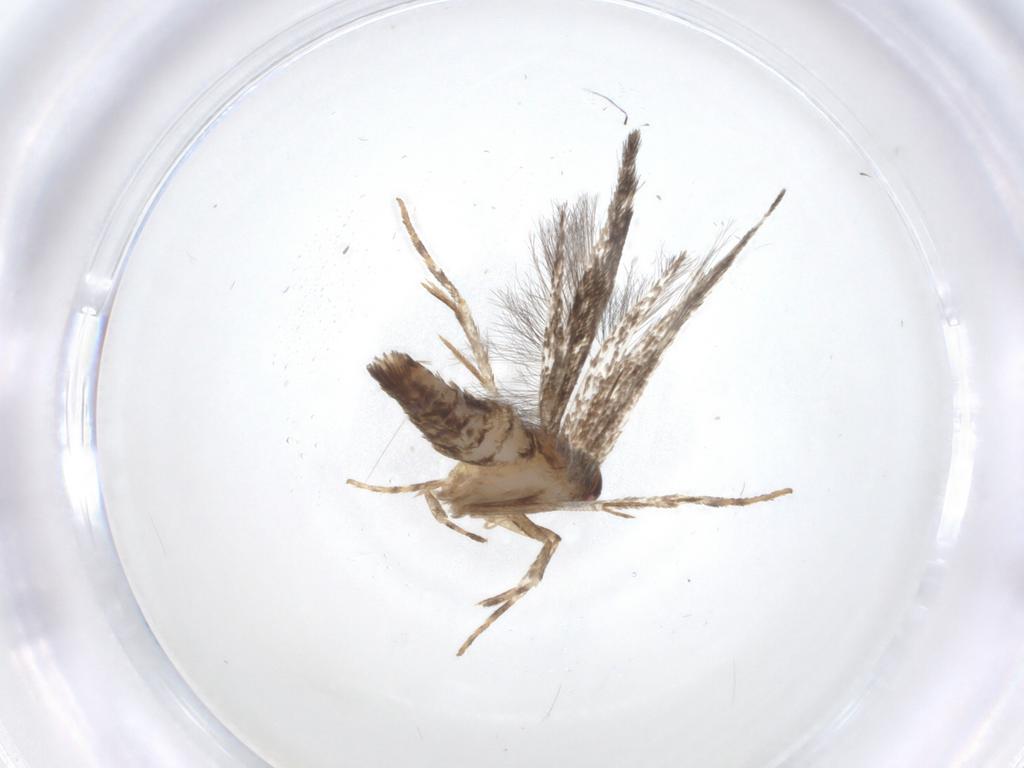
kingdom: Animalia
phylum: Arthropoda
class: Insecta
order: Lepidoptera
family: Cosmopterigidae
